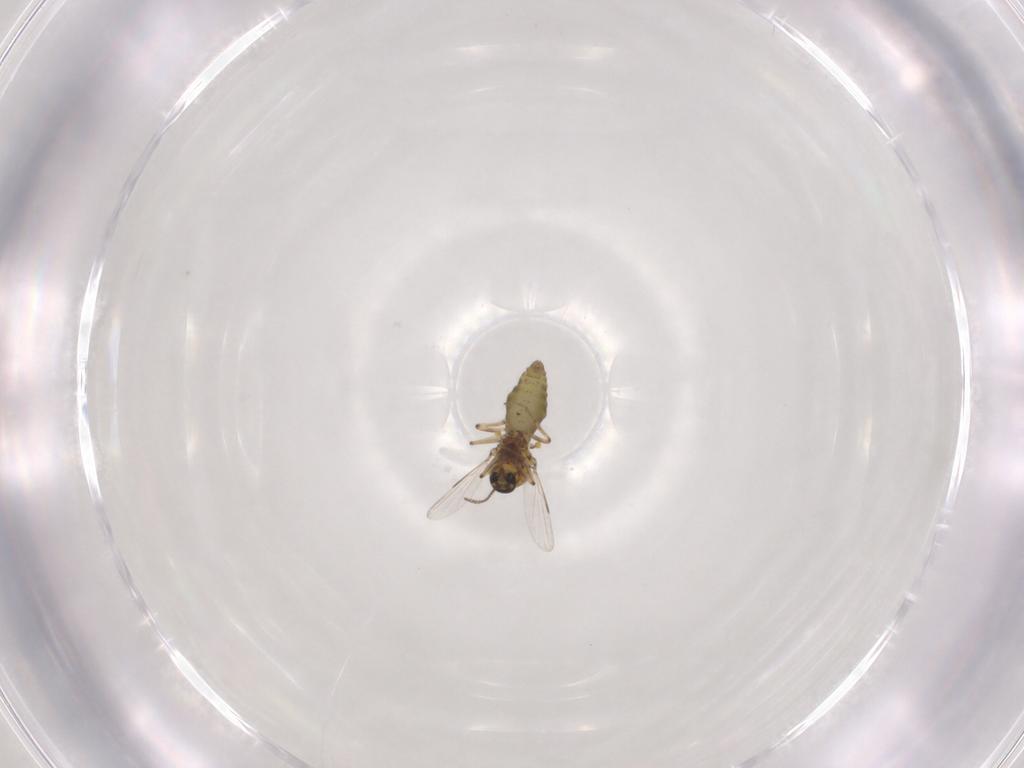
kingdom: Animalia
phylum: Arthropoda
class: Insecta
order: Diptera
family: Ceratopogonidae
